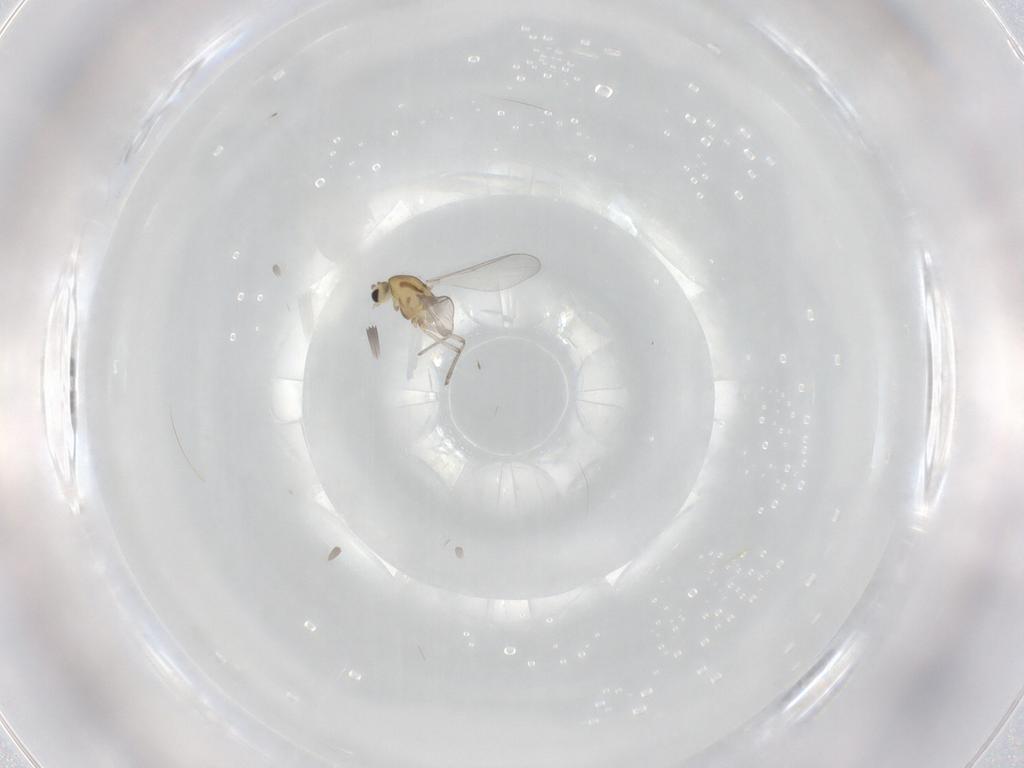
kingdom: Animalia
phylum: Arthropoda
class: Insecta
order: Diptera
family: Chironomidae
